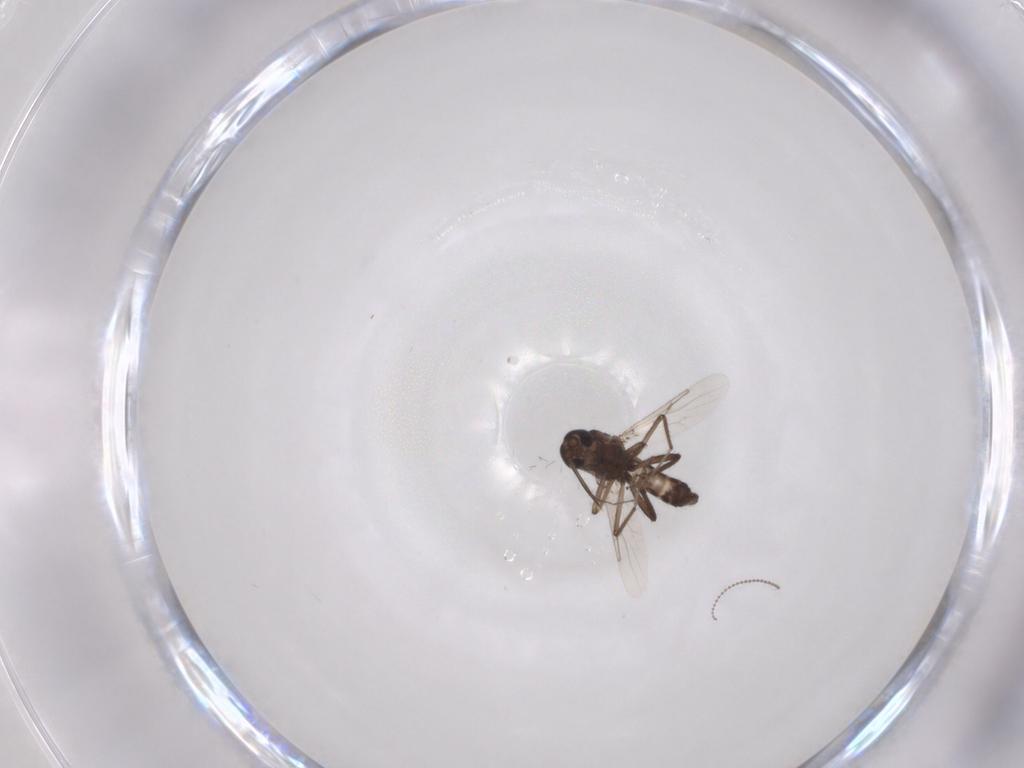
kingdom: Animalia
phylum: Arthropoda
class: Insecta
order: Diptera
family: Ceratopogonidae
